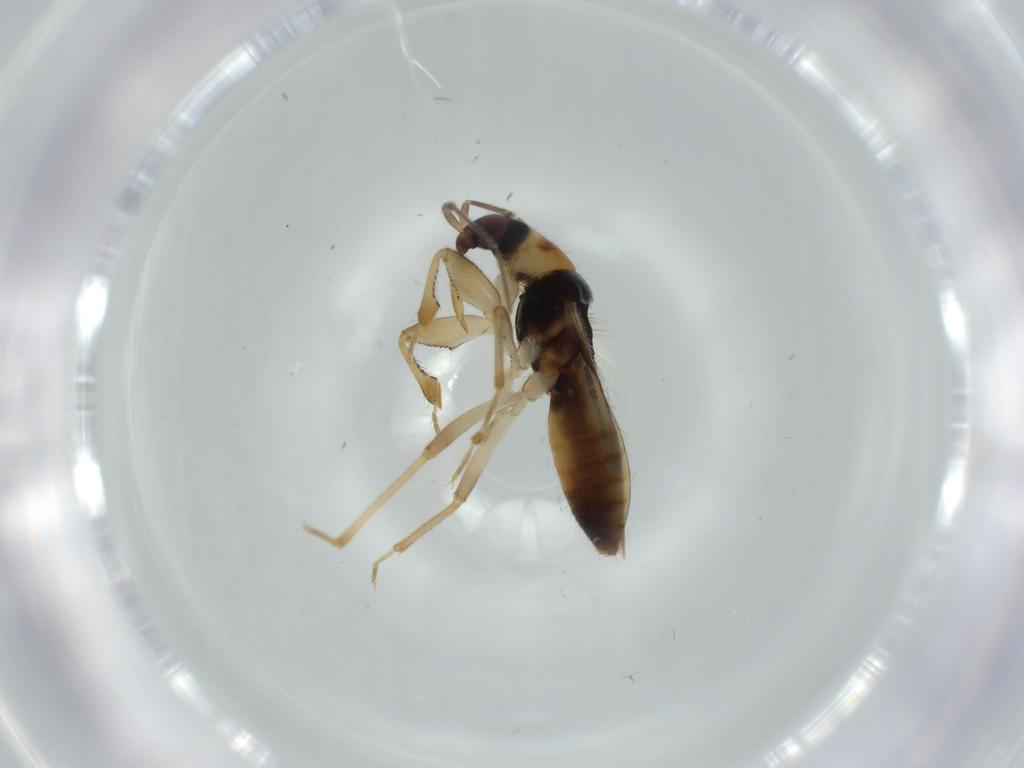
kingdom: Animalia
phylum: Arthropoda
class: Insecta
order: Hemiptera
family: Nabidae
